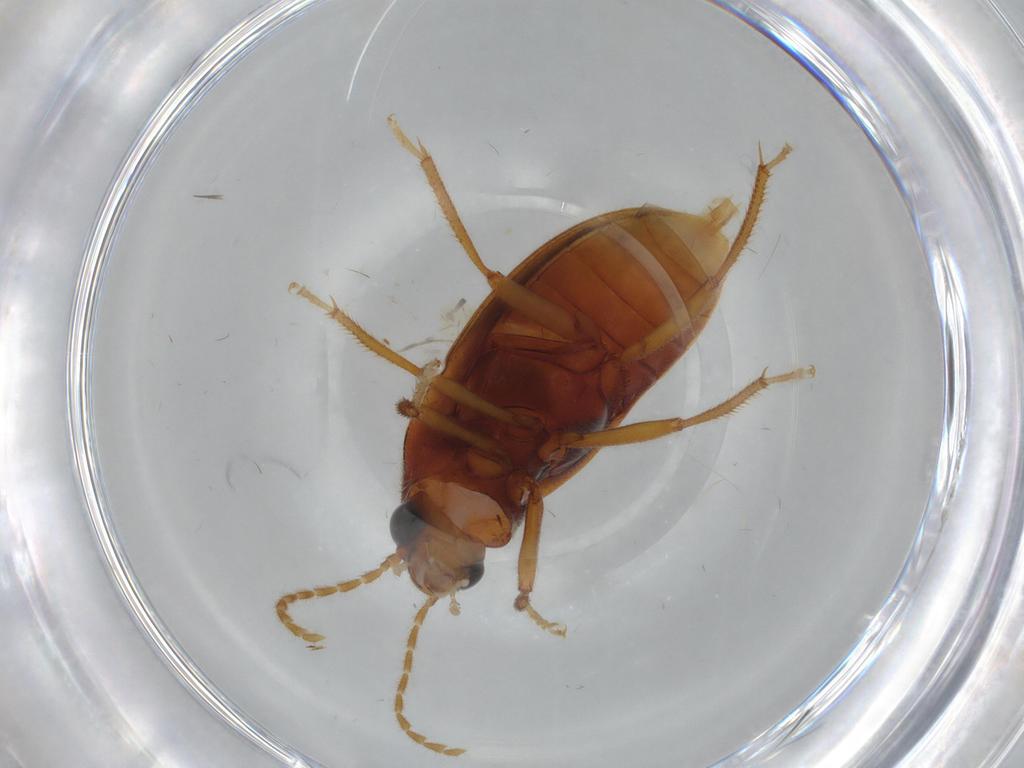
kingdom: Animalia
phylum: Arthropoda
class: Insecta
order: Coleoptera
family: Ptilodactylidae
